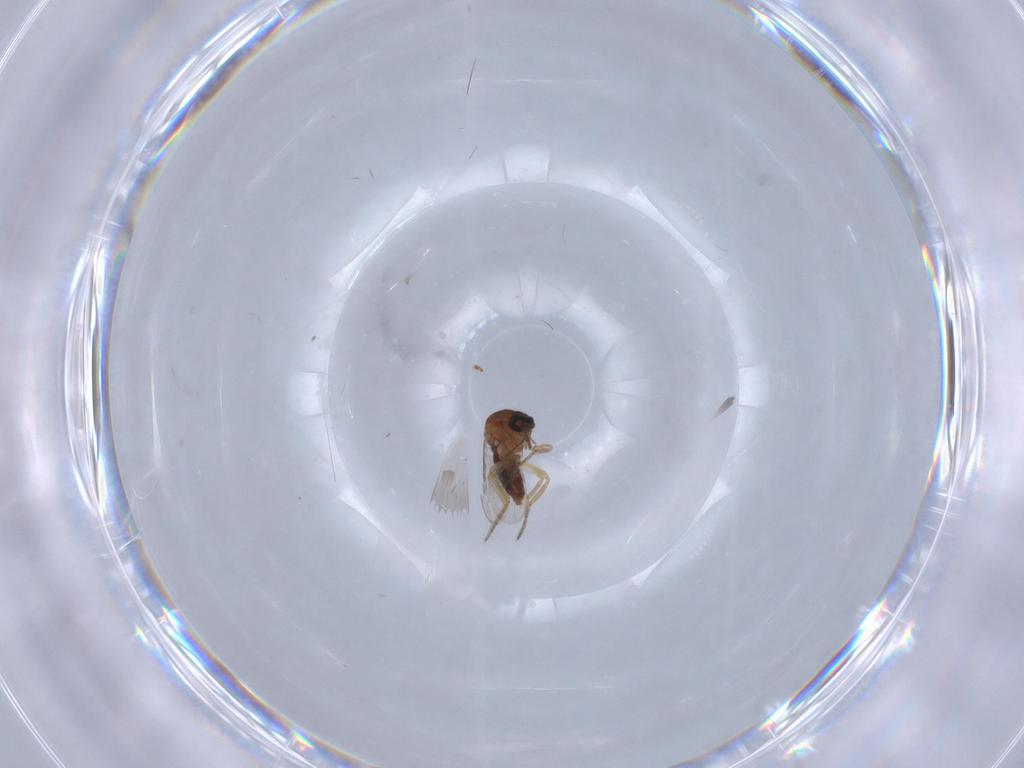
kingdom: Animalia
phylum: Arthropoda
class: Insecta
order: Diptera
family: Ceratopogonidae
